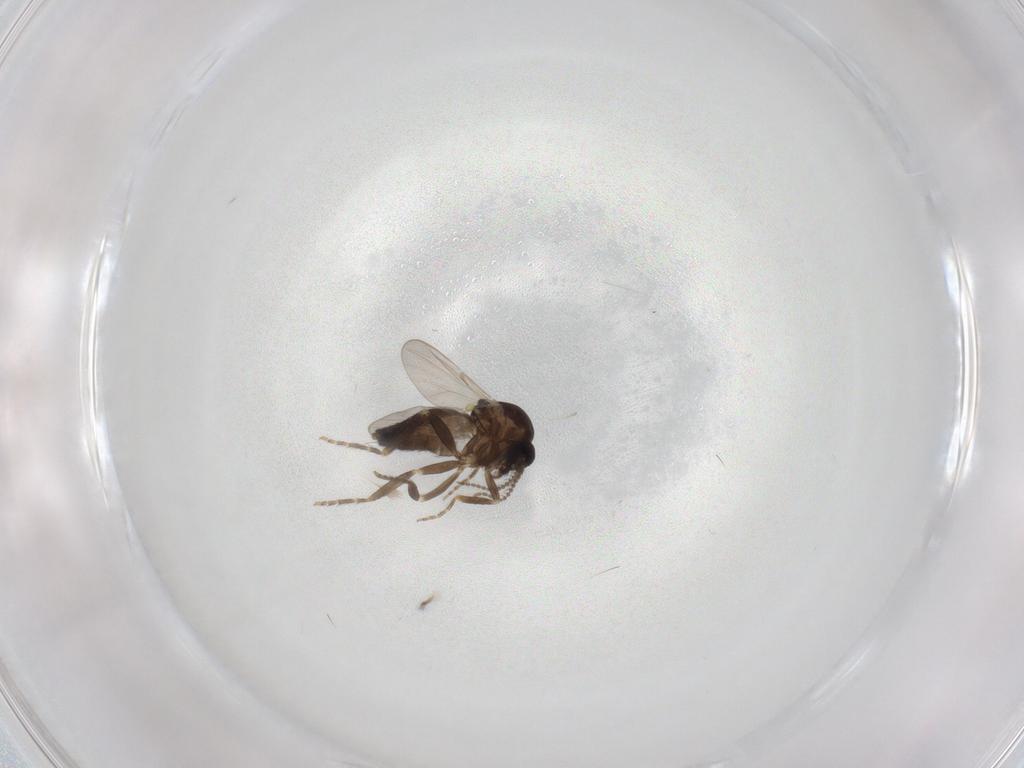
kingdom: Animalia
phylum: Arthropoda
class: Insecta
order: Diptera
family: Ceratopogonidae
